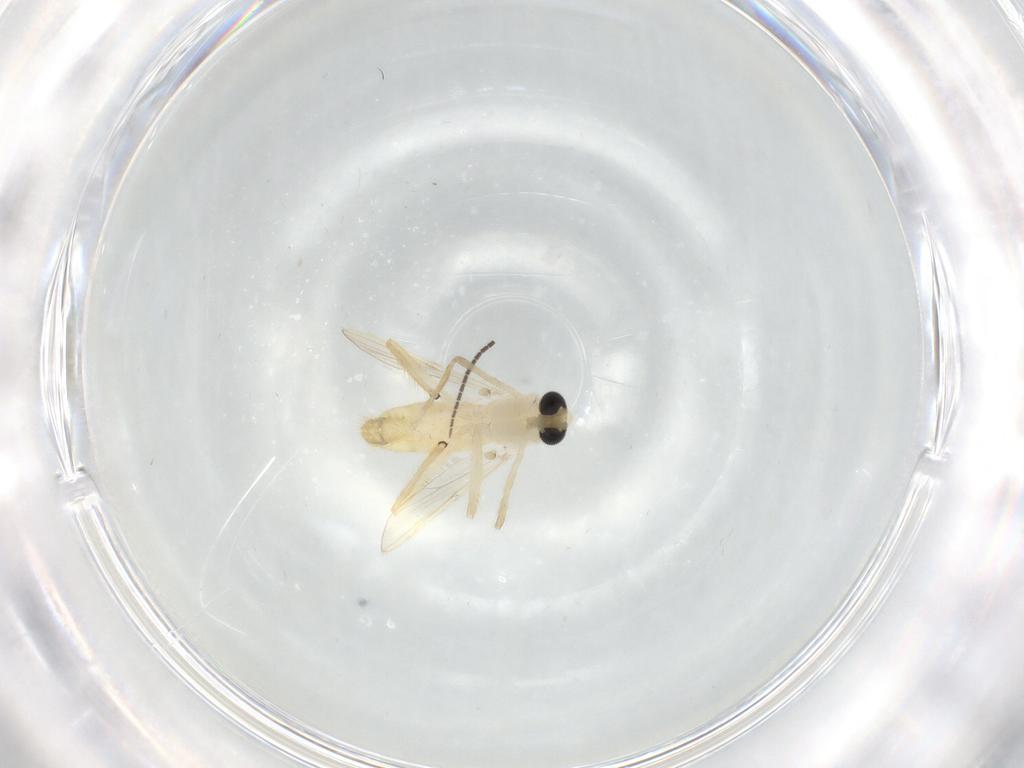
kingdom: Animalia
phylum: Arthropoda
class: Insecta
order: Diptera
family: Chironomidae
